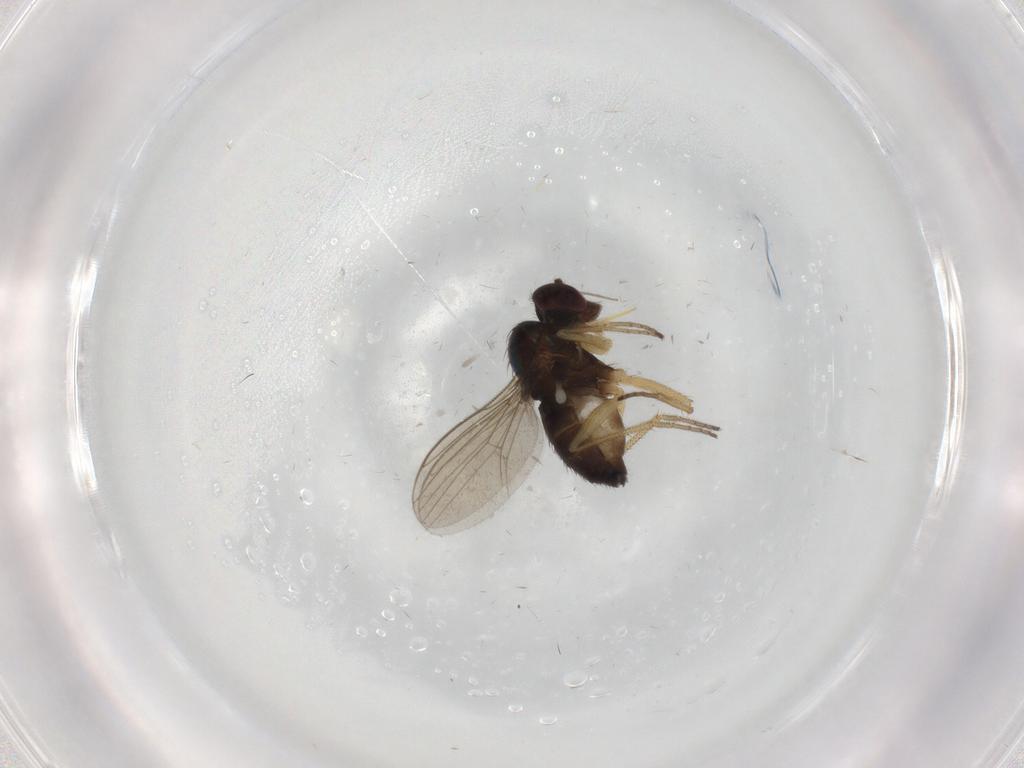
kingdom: Animalia
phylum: Arthropoda
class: Insecta
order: Diptera
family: Dolichopodidae
